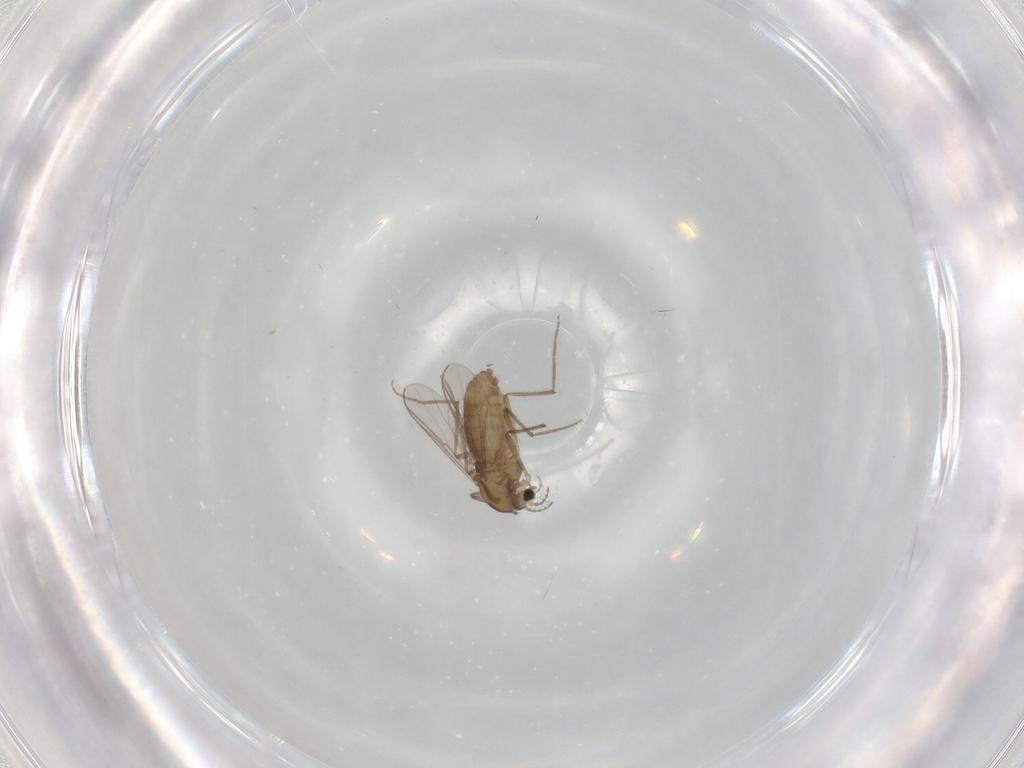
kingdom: Animalia
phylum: Arthropoda
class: Insecta
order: Diptera
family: Chironomidae
